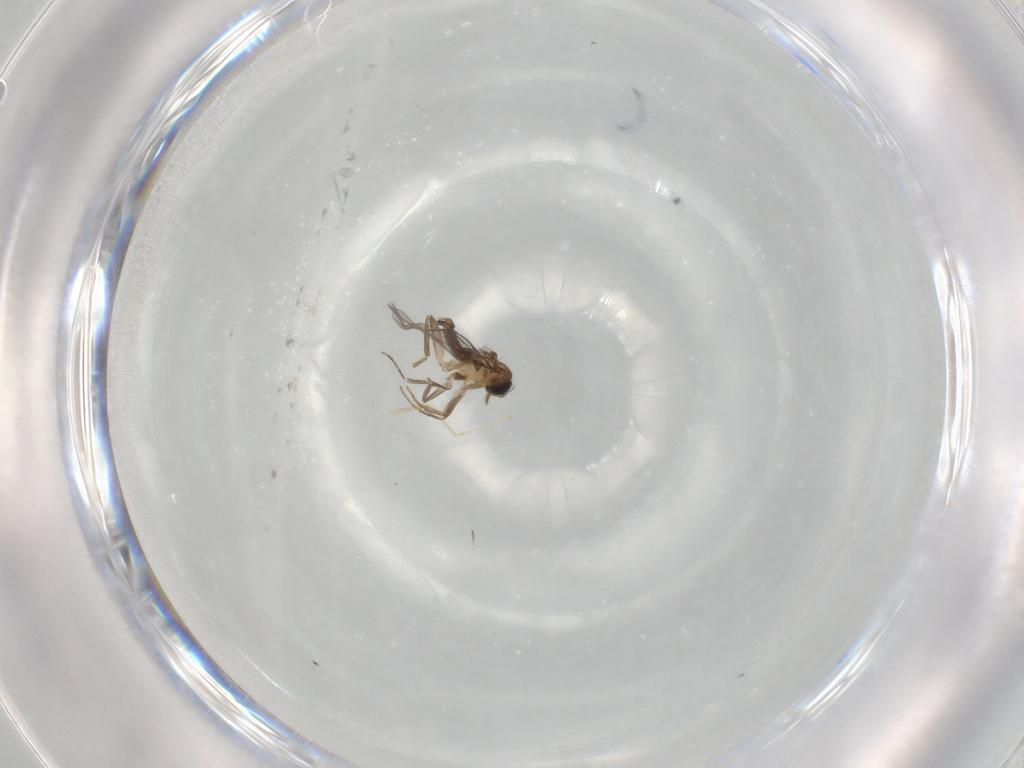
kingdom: Animalia
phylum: Arthropoda
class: Insecta
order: Diptera
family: Cecidomyiidae
